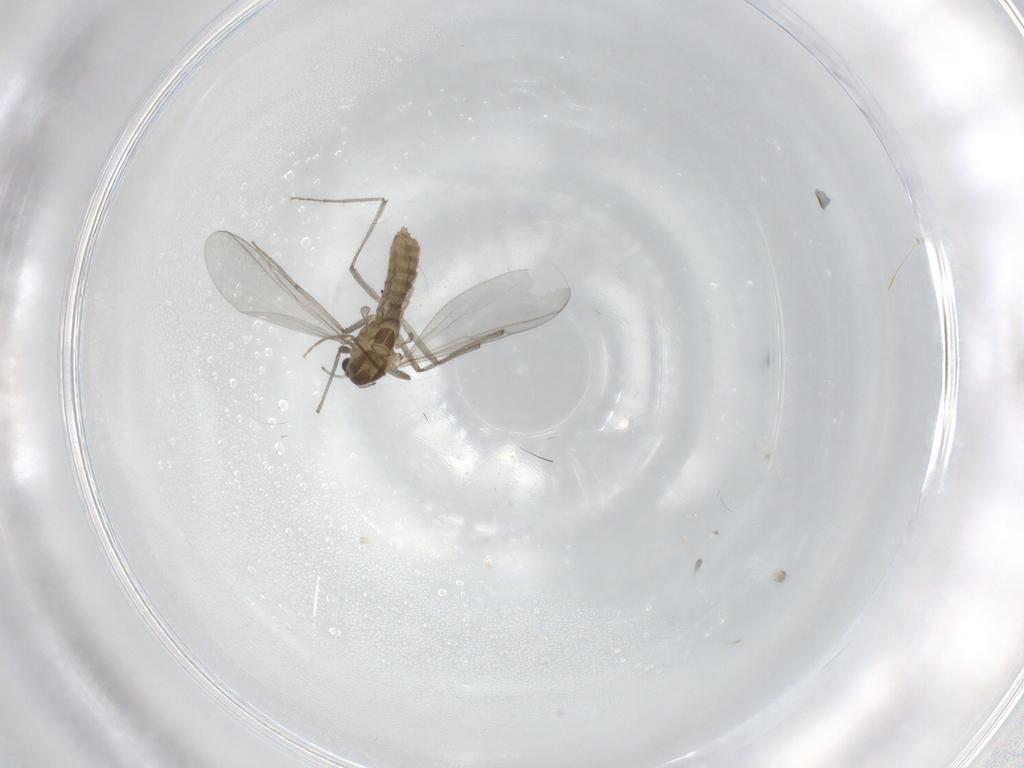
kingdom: Animalia
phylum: Arthropoda
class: Insecta
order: Diptera
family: Chironomidae
